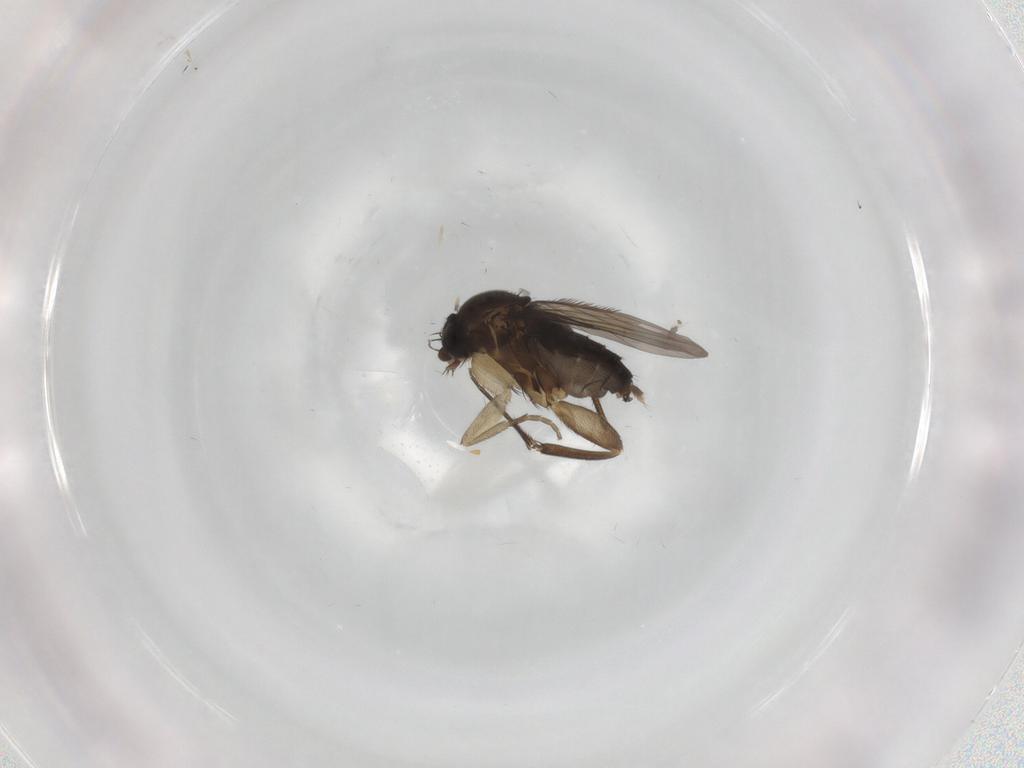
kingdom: Animalia
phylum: Arthropoda
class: Insecta
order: Diptera
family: Phoridae
